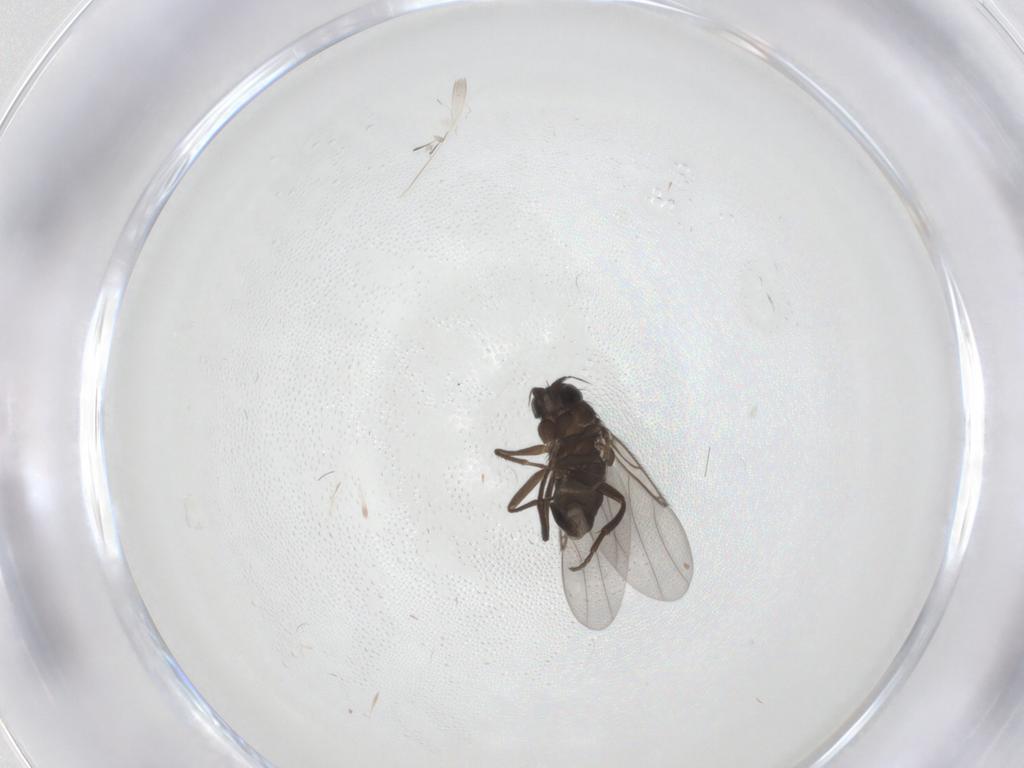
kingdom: Animalia
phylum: Arthropoda
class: Insecta
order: Diptera
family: Phoridae
